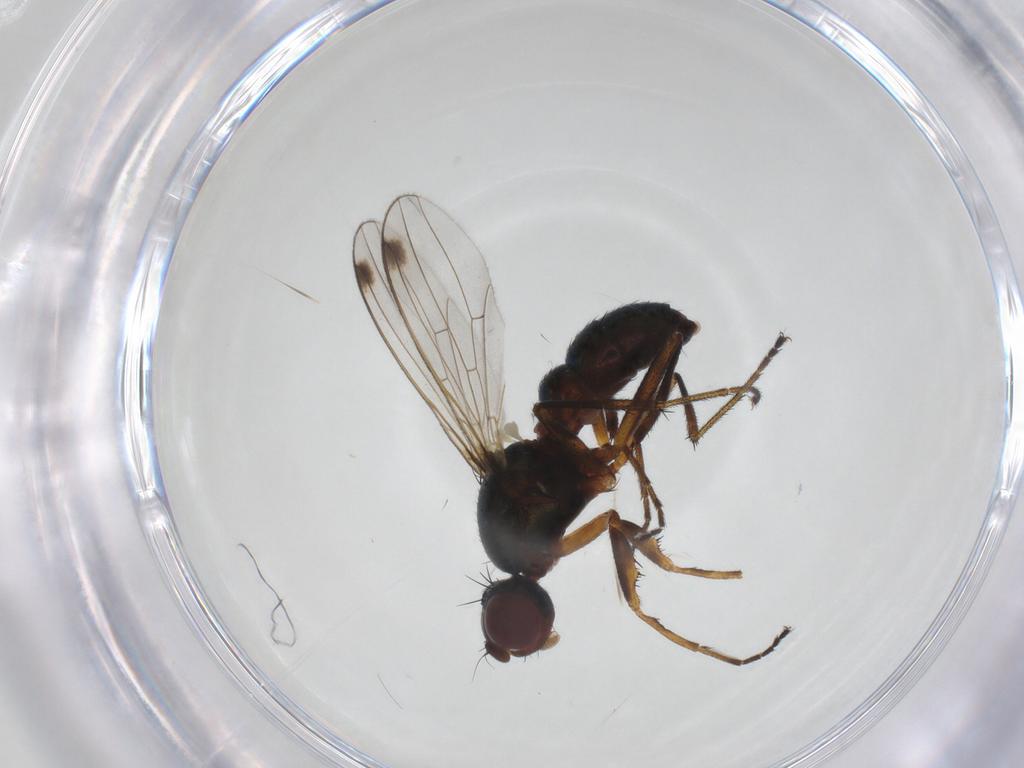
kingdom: Animalia
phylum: Arthropoda
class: Insecta
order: Diptera
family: Sepsidae
